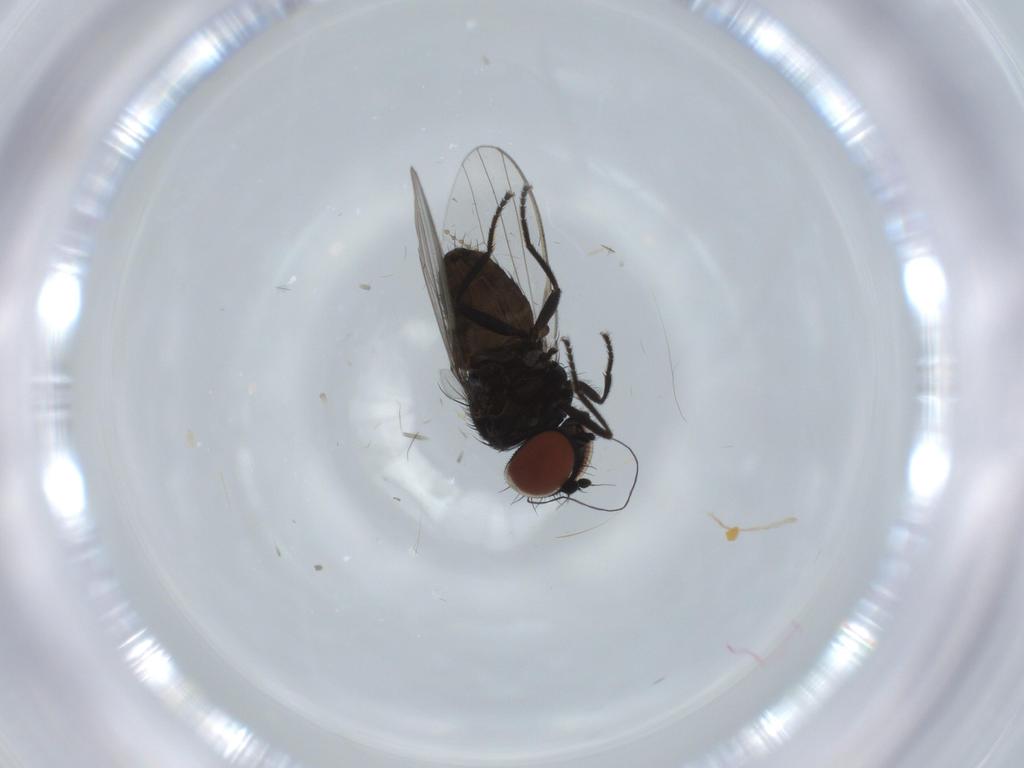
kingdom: Animalia
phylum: Arthropoda
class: Insecta
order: Diptera
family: Milichiidae
